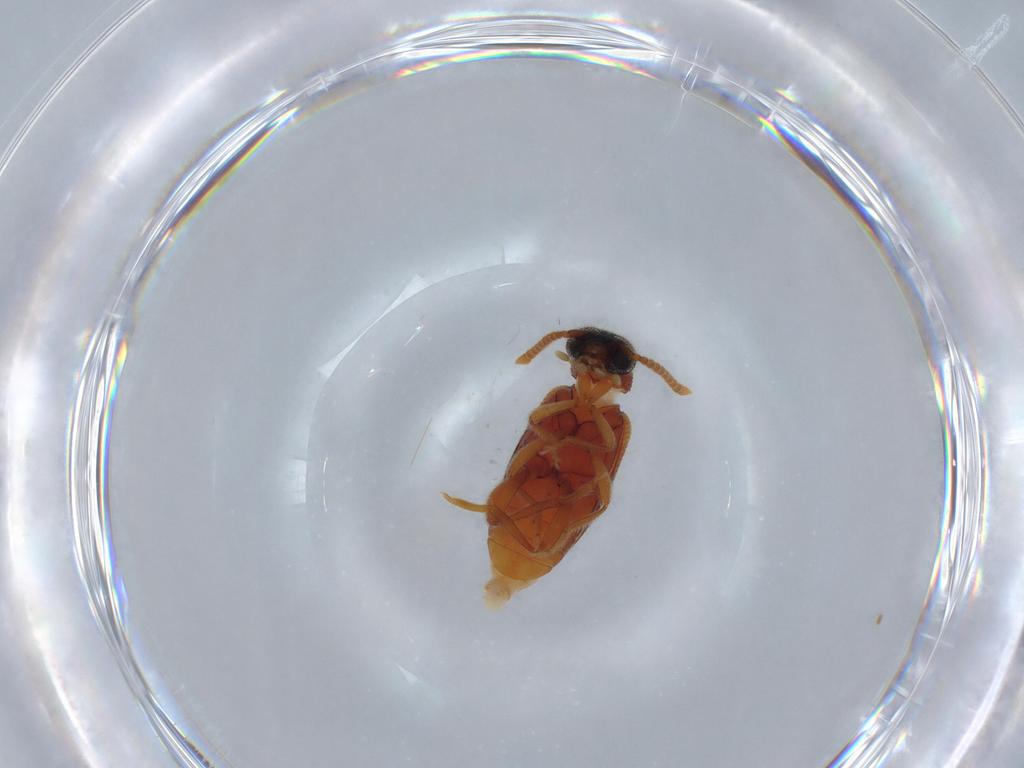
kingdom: Animalia
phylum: Arthropoda
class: Insecta
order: Coleoptera
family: Aderidae
